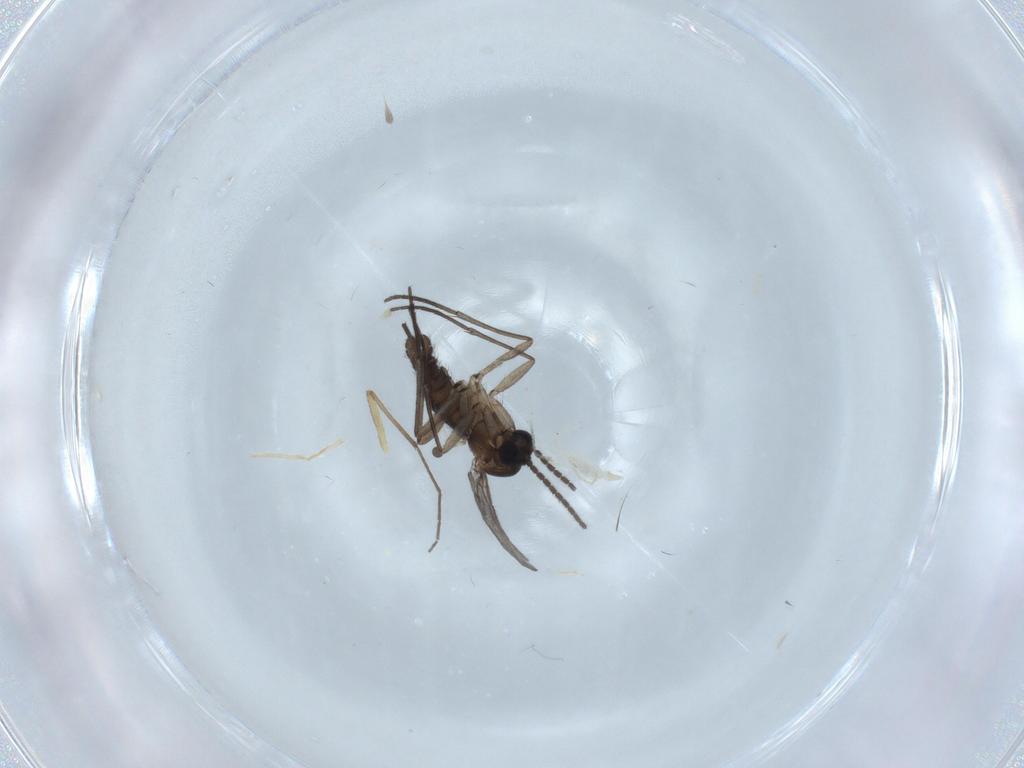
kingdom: Animalia
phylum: Arthropoda
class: Insecta
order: Diptera
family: Sciaridae
